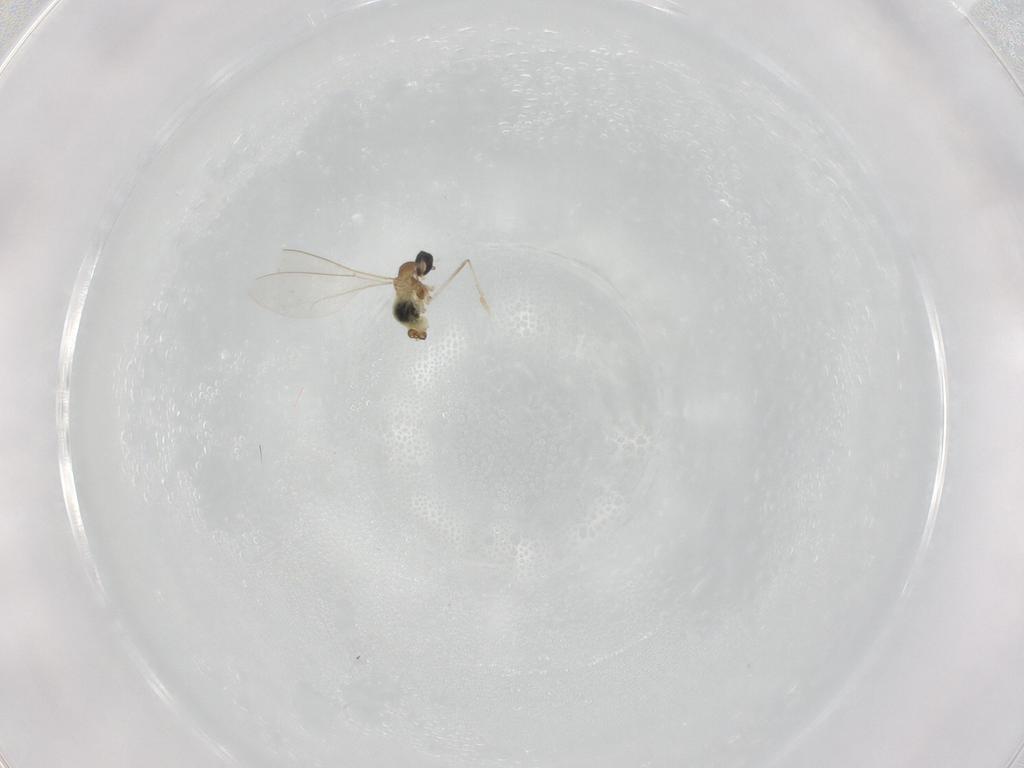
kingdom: Animalia
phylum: Arthropoda
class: Insecta
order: Diptera
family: Cecidomyiidae
